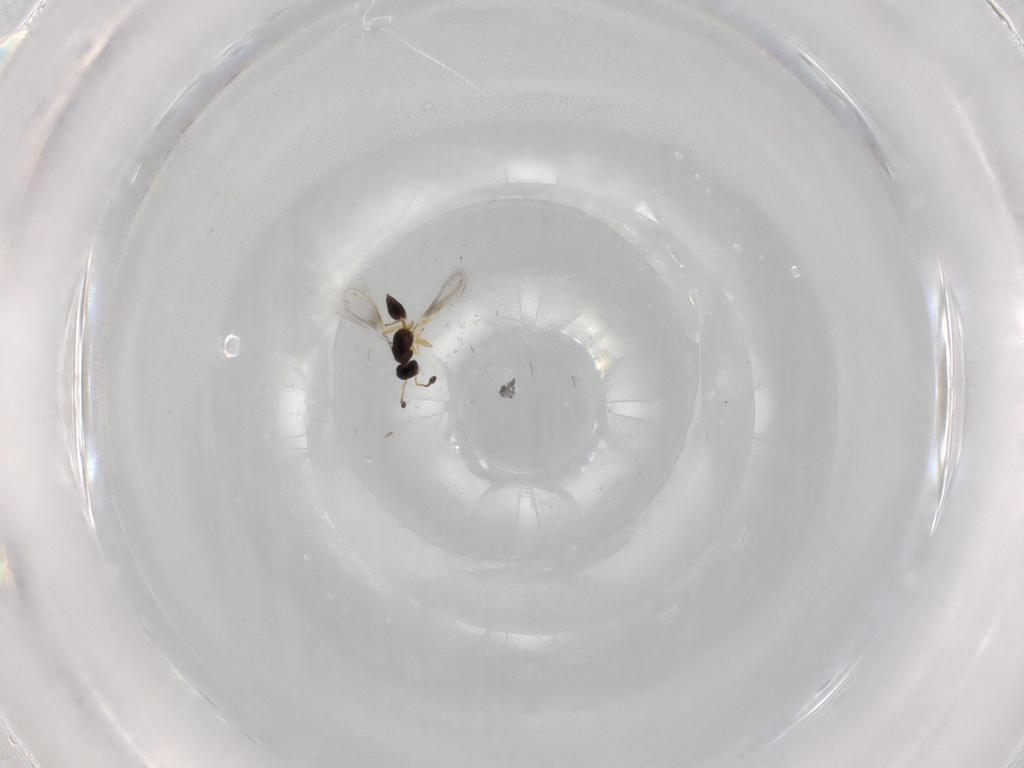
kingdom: Animalia
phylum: Arthropoda
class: Insecta
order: Hymenoptera
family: Mymaridae
